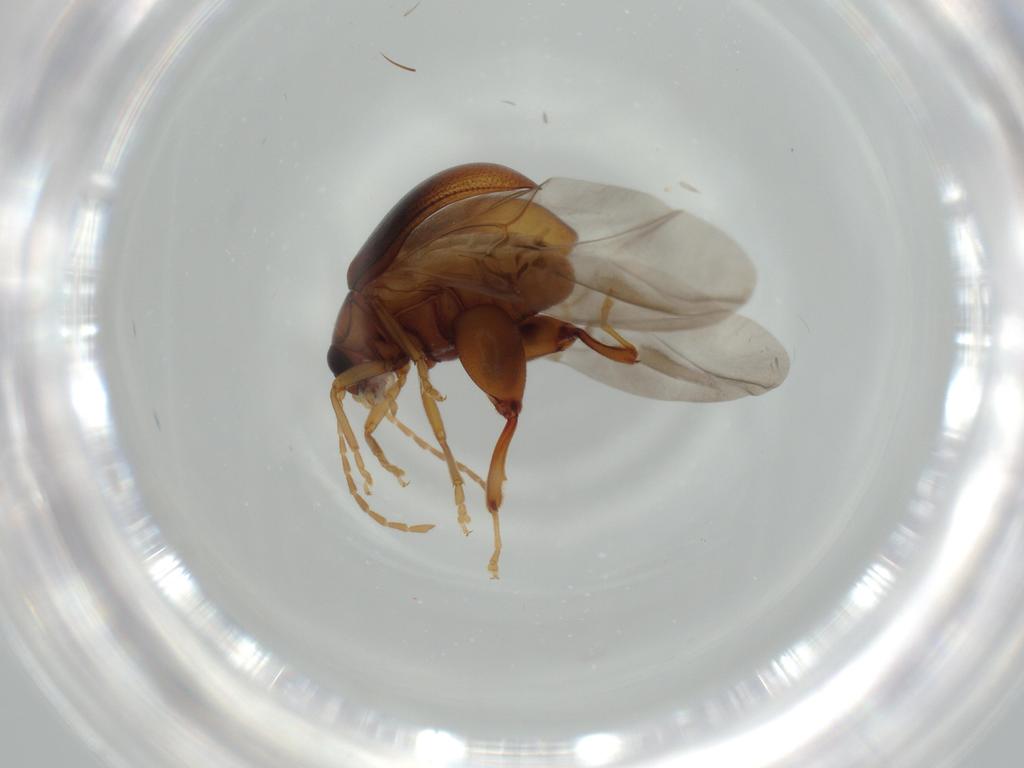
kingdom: Animalia
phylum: Arthropoda
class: Insecta
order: Coleoptera
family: Chrysomelidae
